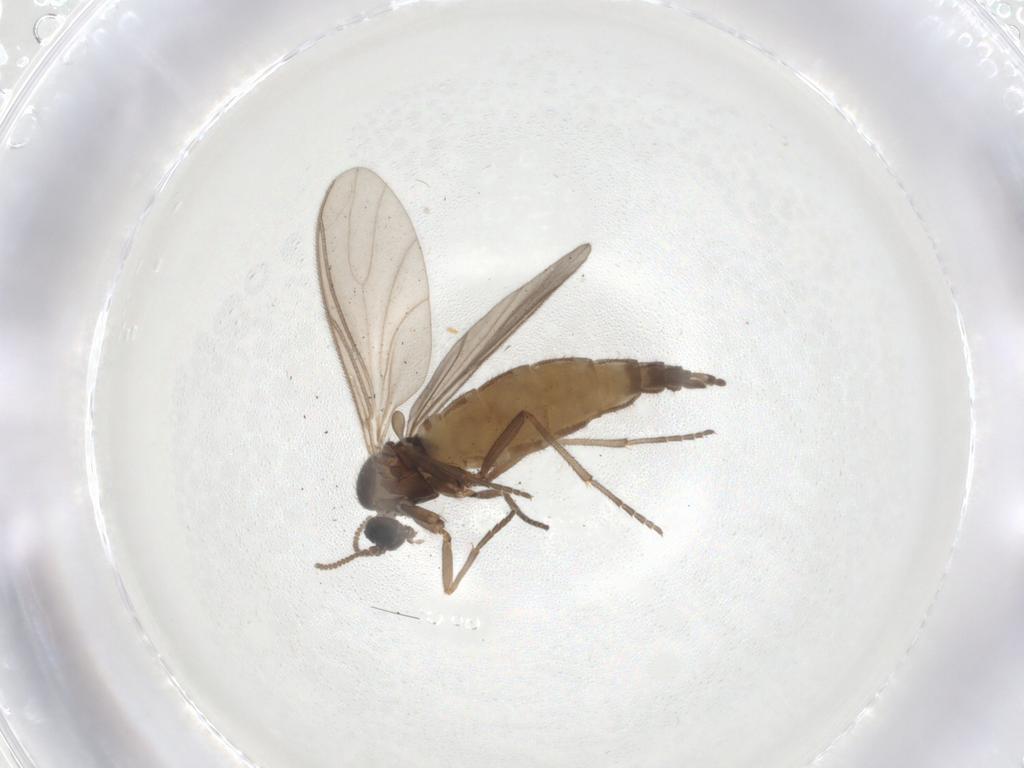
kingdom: Animalia
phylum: Arthropoda
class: Insecta
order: Diptera
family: Sciaridae
